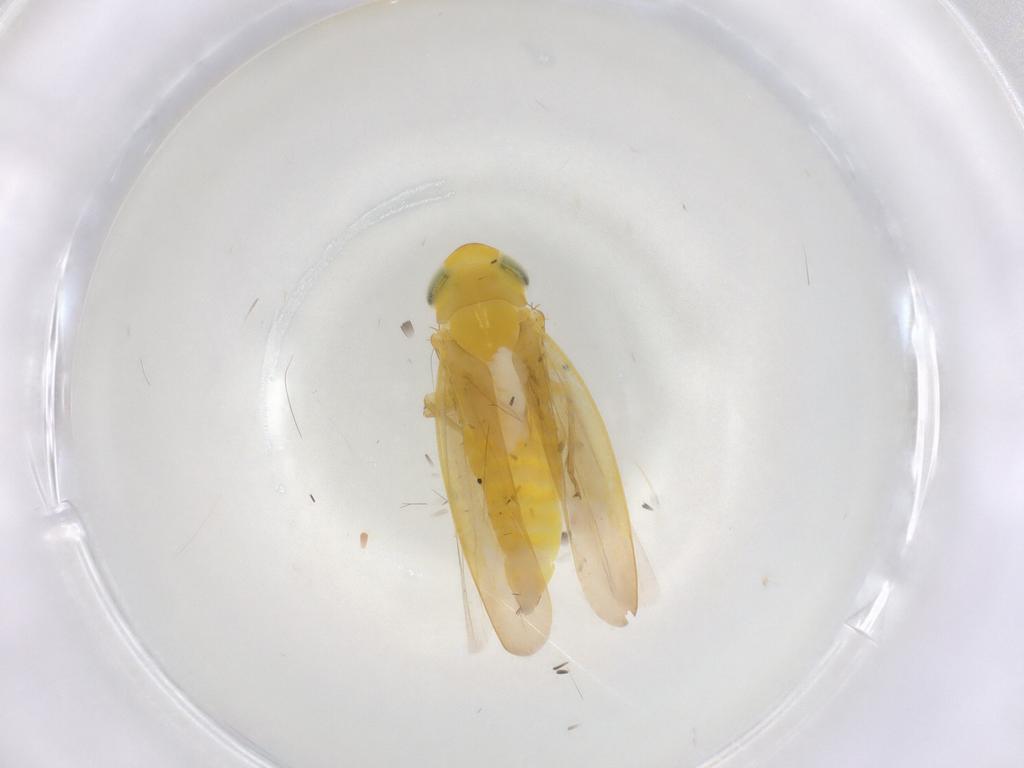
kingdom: Animalia
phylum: Arthropoda
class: Insecta
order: Hemiptera
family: Cicadellidae
